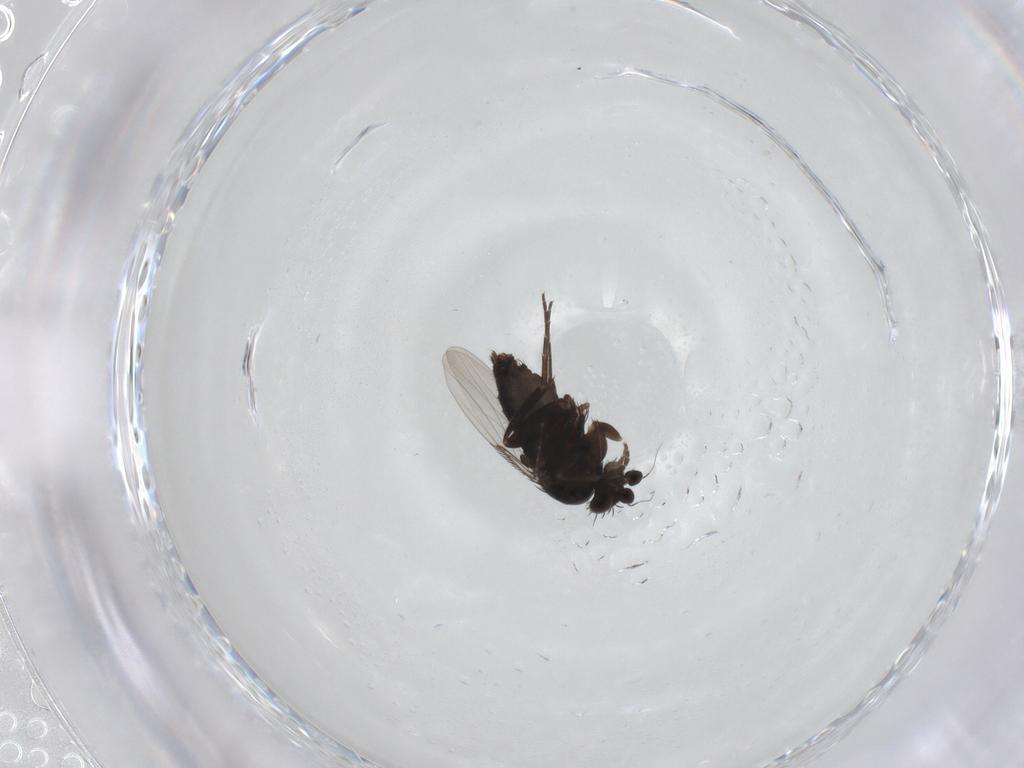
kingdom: Animalia
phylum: Arthropoda
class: Insecta
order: Diptera
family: Phoridae
